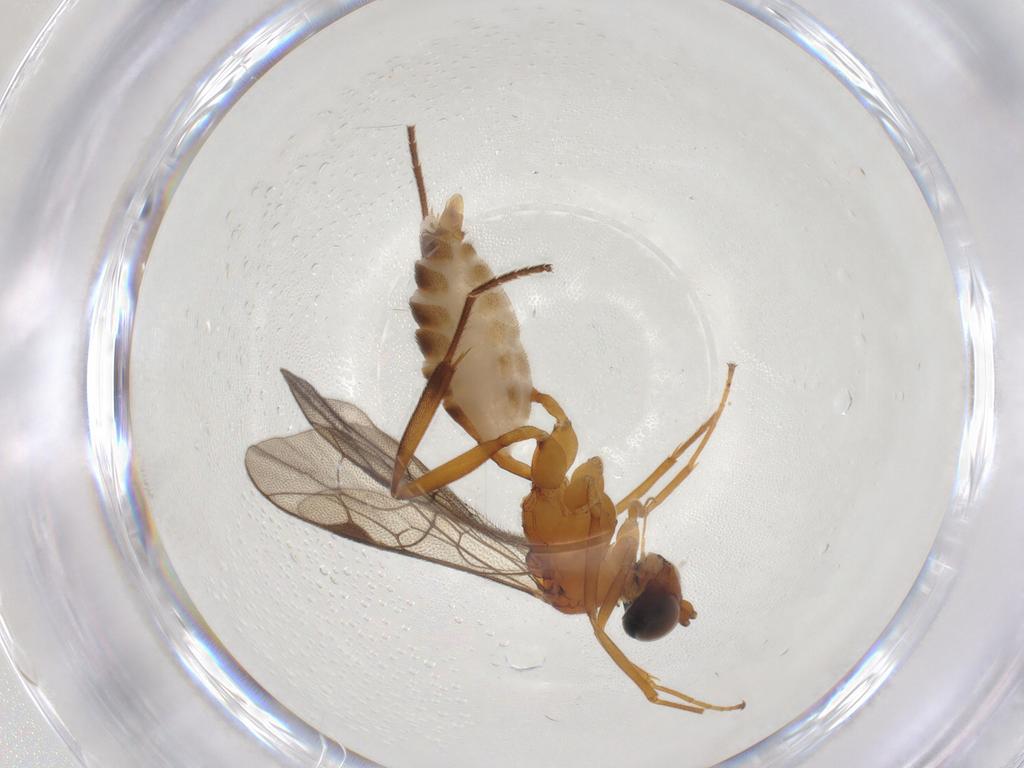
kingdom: Animalia
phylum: Arthropoda
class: Insecta
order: Hymenoptera
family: Ichneumonidae
